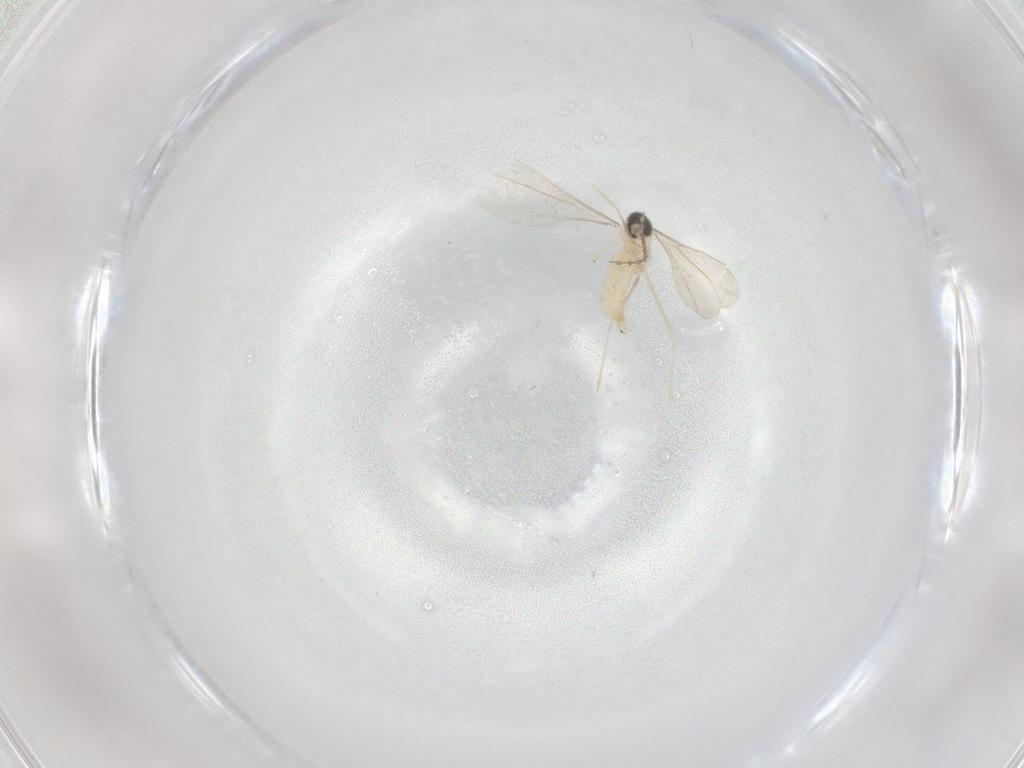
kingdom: Animalia
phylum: Arthropoda
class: Insecta
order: Diptera
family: Cecidomyiidae
